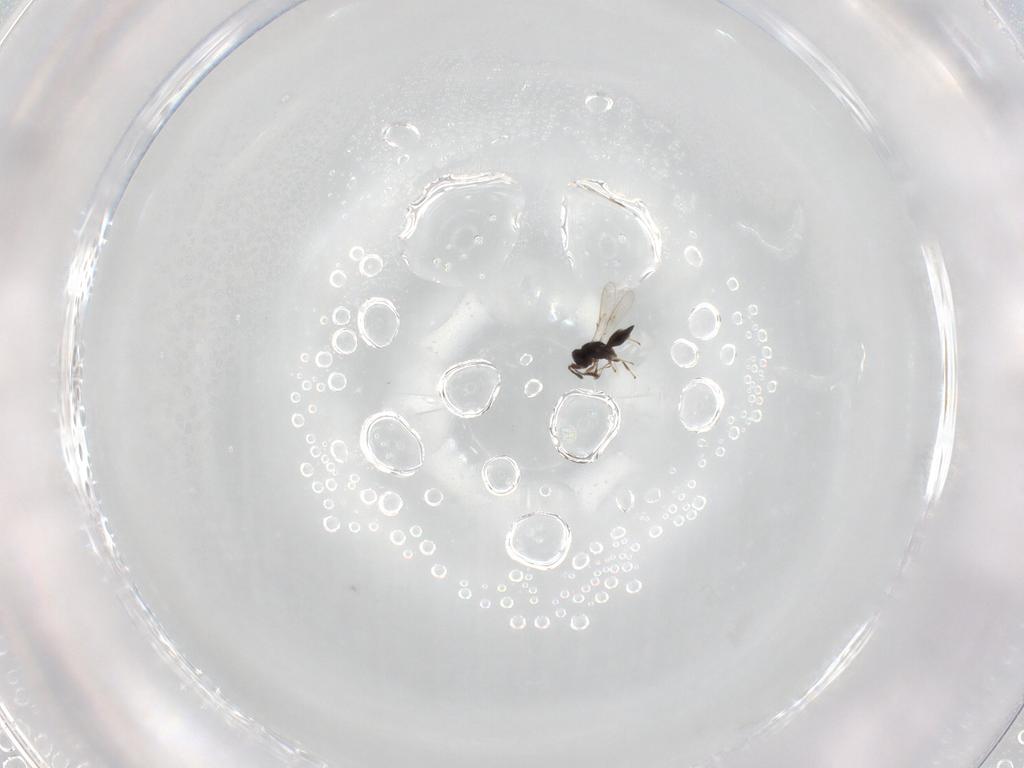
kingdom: Animalia
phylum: Arthropoda
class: Insecta
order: Hymenoptera
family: Scelionidae
